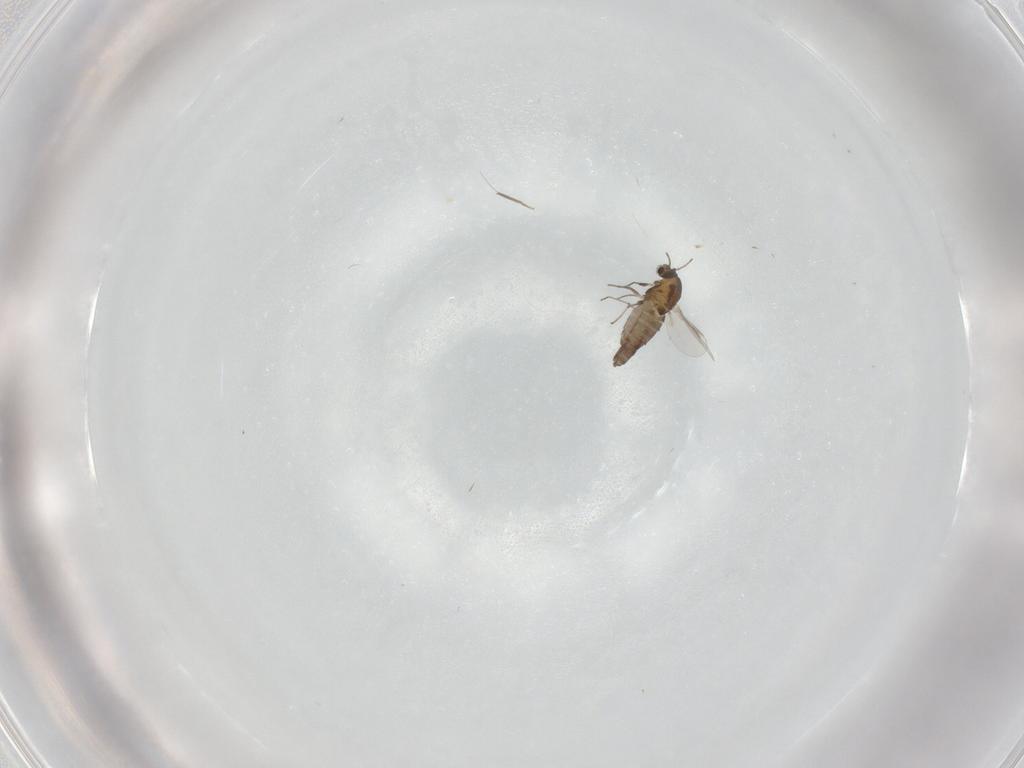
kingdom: Animalia
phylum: Arthropoda
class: Insecta
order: Diptera
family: Chironomidae
